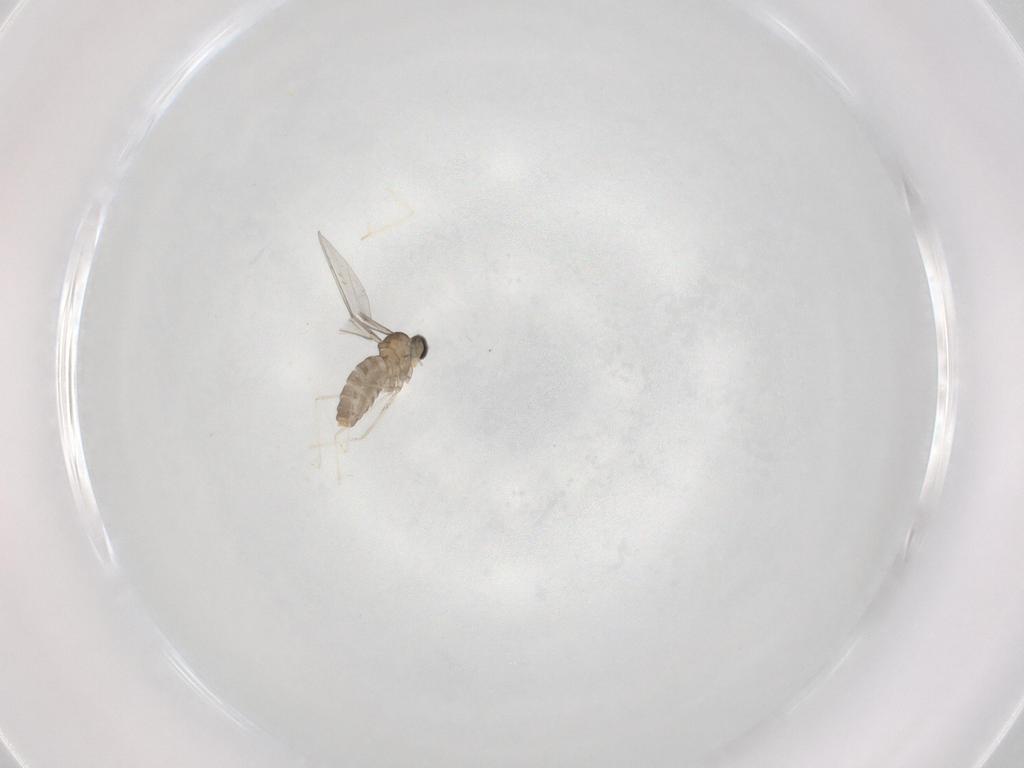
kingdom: Animalia
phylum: Arthropoda
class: Insecta
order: Diptera
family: Cecidomyiidae
